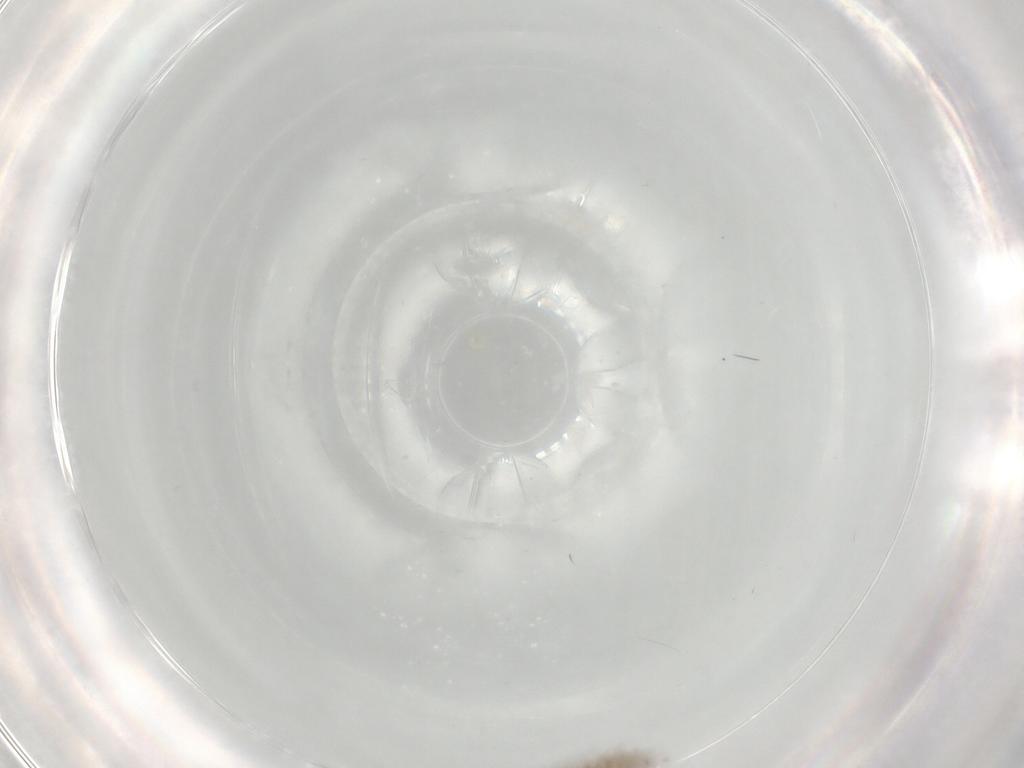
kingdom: Animalia
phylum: Arthropoda
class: Insecta
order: Diptera
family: Cecidomyiidae
